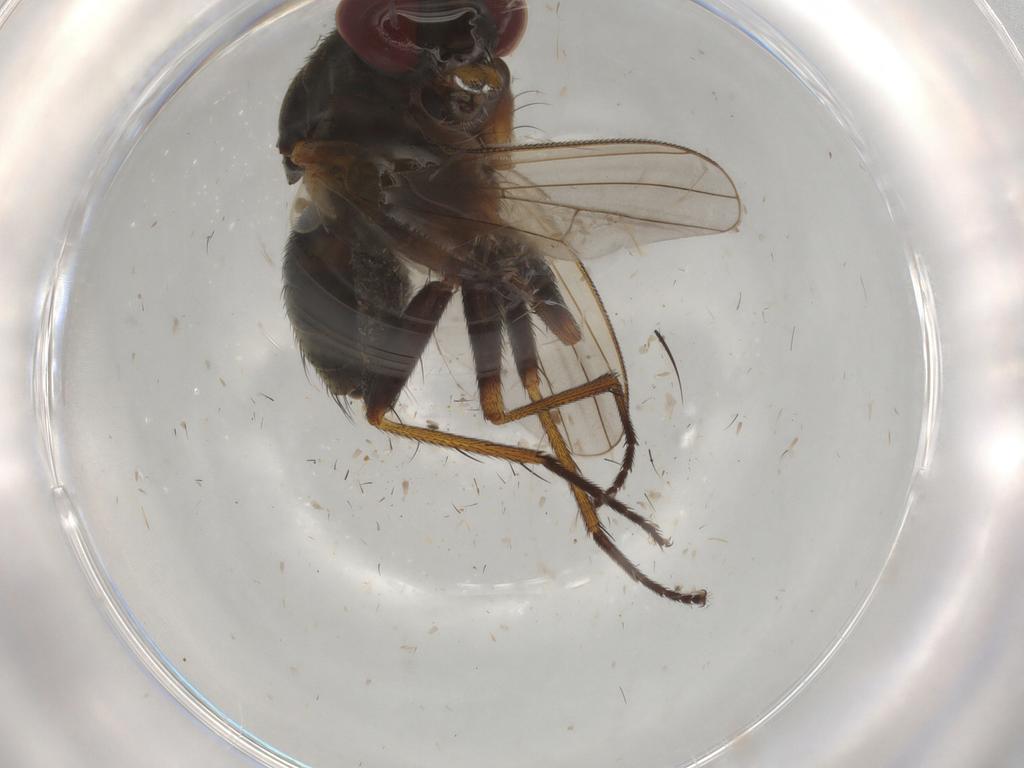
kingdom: Animalia
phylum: Arthropoda
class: Insecta
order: Diptera
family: Muscidae
